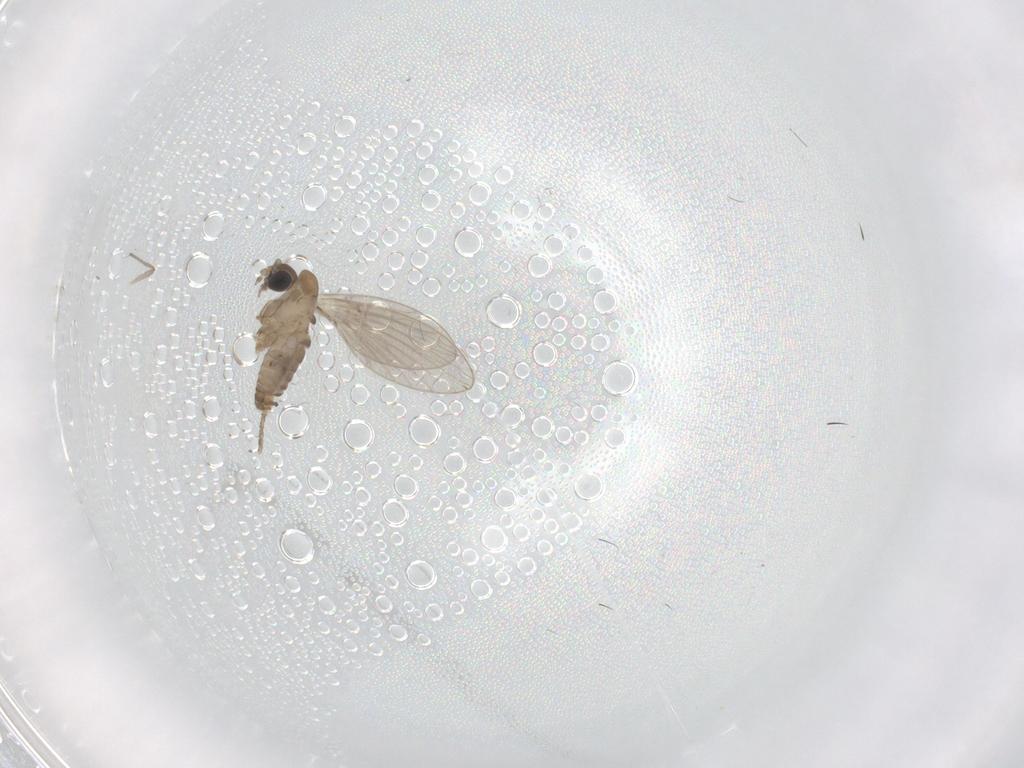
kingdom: Animalia
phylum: Arthropoda
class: Insecta
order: Diptera
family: Chironomidae
